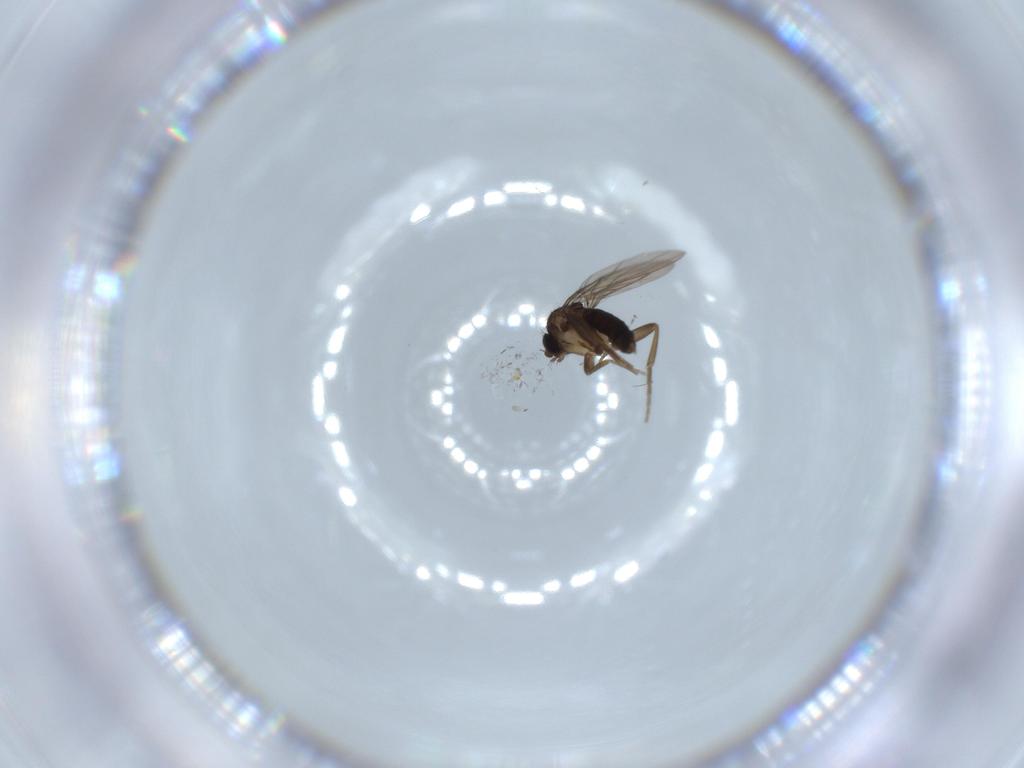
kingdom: Animalia
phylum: Arthropoda
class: Insecta
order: Diptera
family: Phoridae
